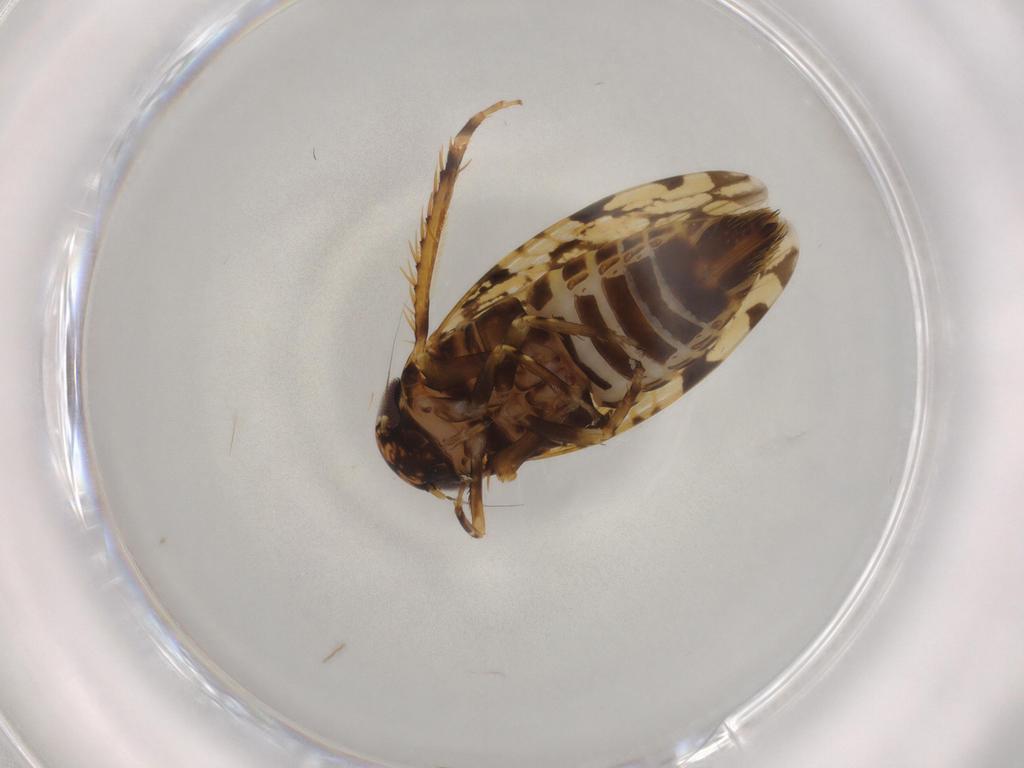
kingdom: Animalia
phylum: Arthropoda
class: Insecta
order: Hemiptera
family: Cicadellidae
